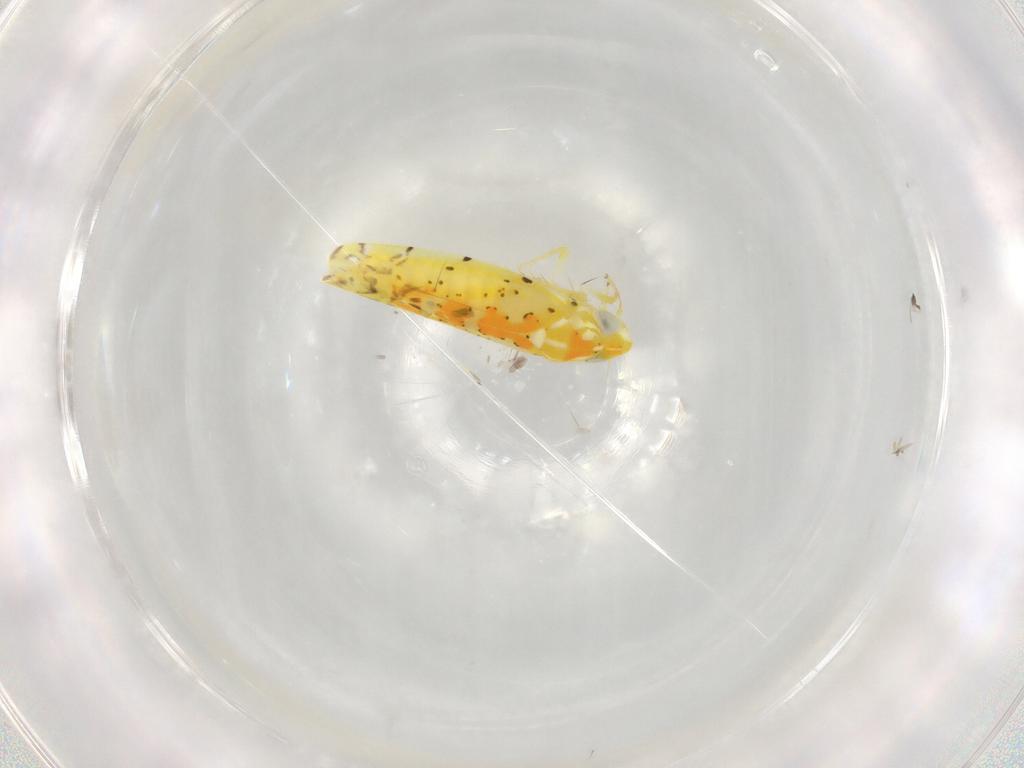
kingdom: Animalia
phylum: Arthropoda
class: Insecta
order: Hemiptera
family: Cicadellidae
